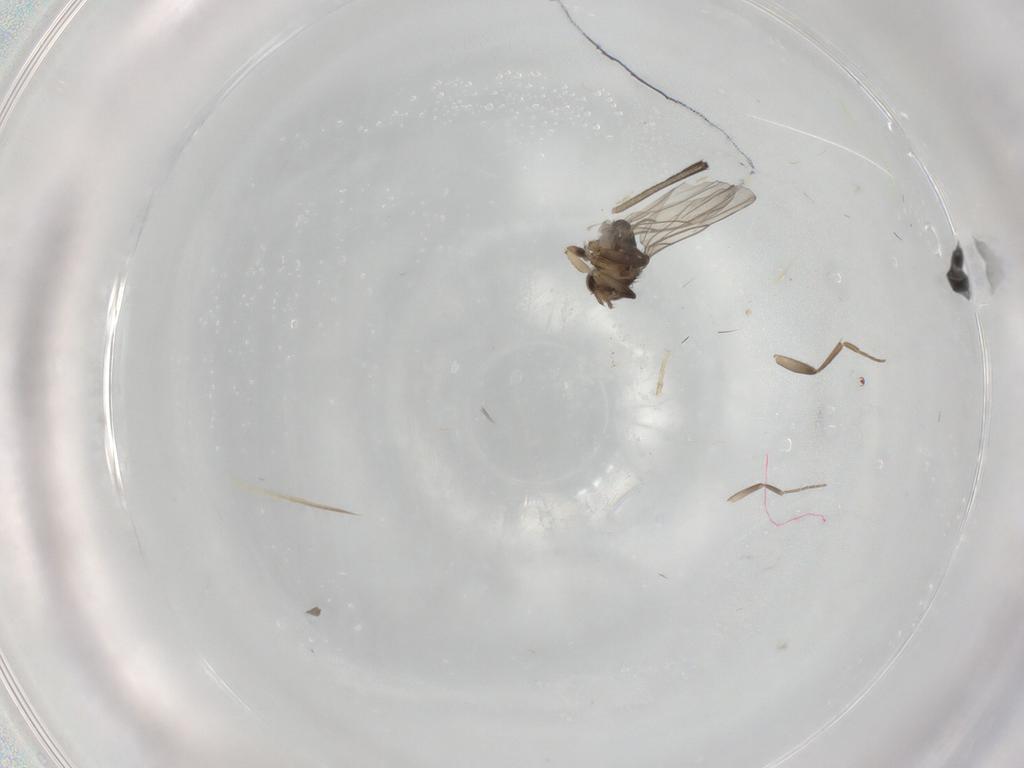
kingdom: Animalia
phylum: Arthropoda
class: Insecta
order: Diptera
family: Phoridae
